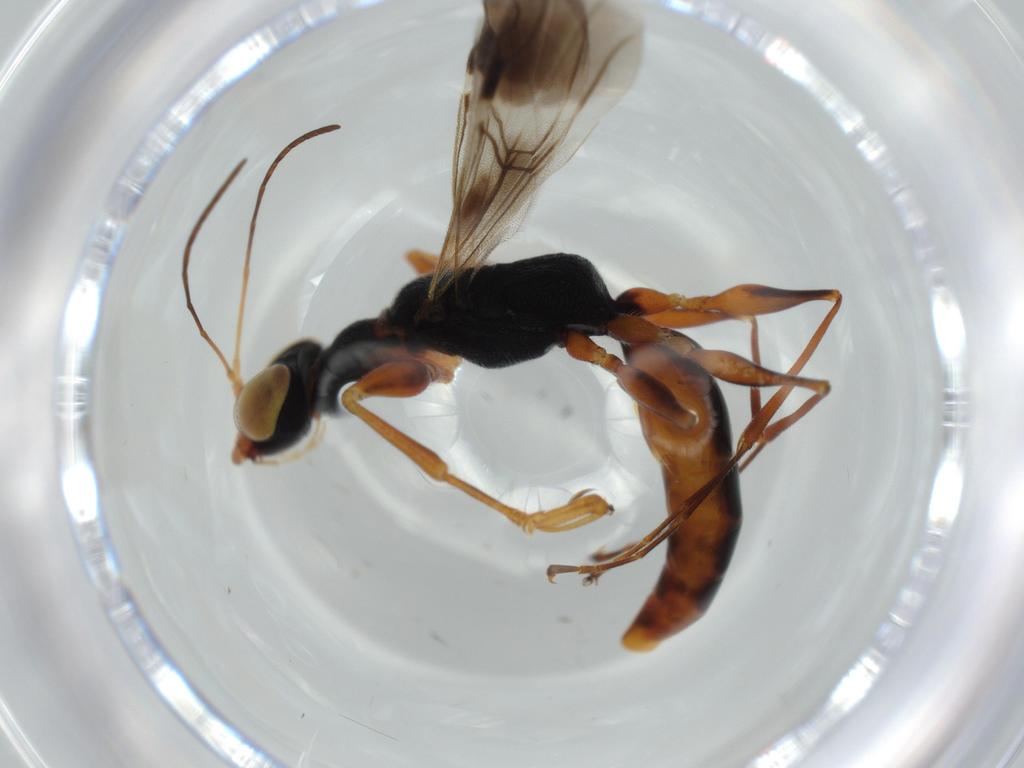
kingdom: Animalia
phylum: Arthropoda
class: Insecta
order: Hymenoptera
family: Dryinidae
